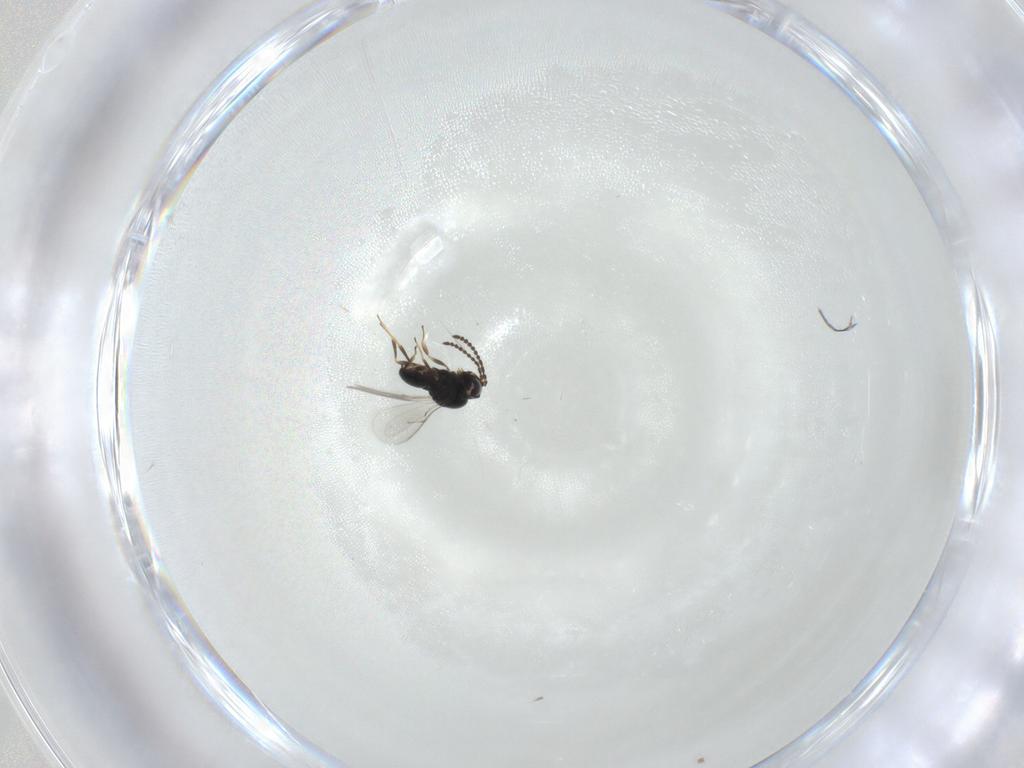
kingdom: Animalia
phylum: Arthropoda
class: Insecta
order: Hymenoptera
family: Scelionidae
